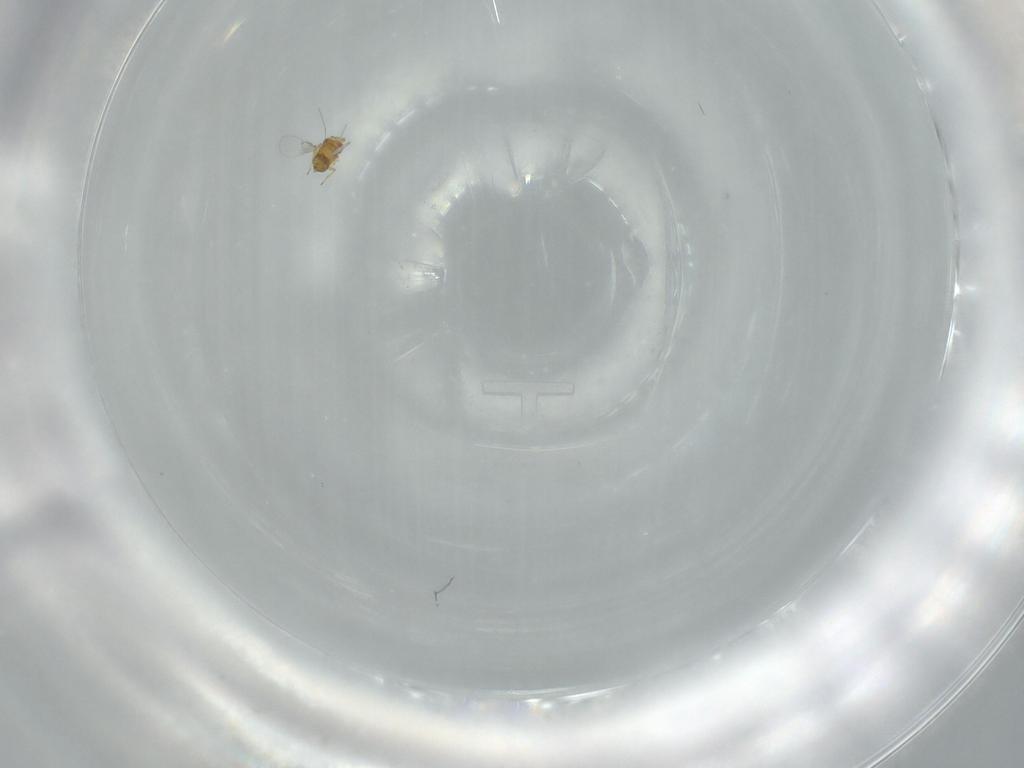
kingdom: Animalia
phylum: Arthropoda
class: Insecta
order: Hymenoptera
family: Trichogrammatidae
